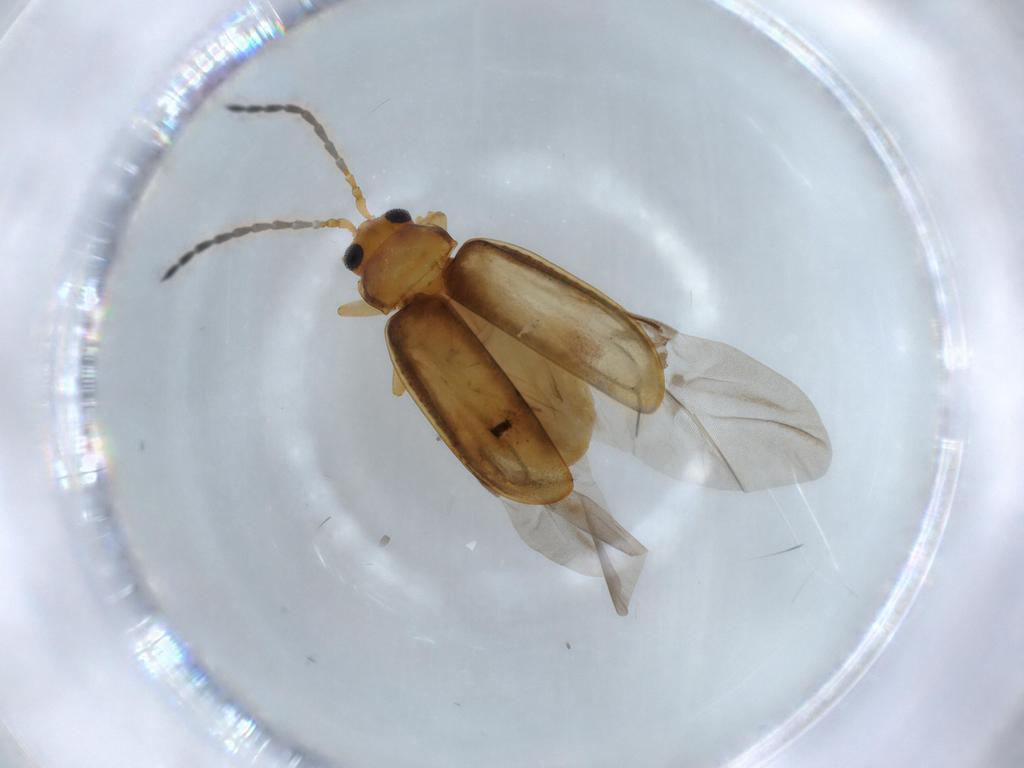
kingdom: Animalia
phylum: Arthropoda
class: Insecta
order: Coleoptera
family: Chrysomelidae
